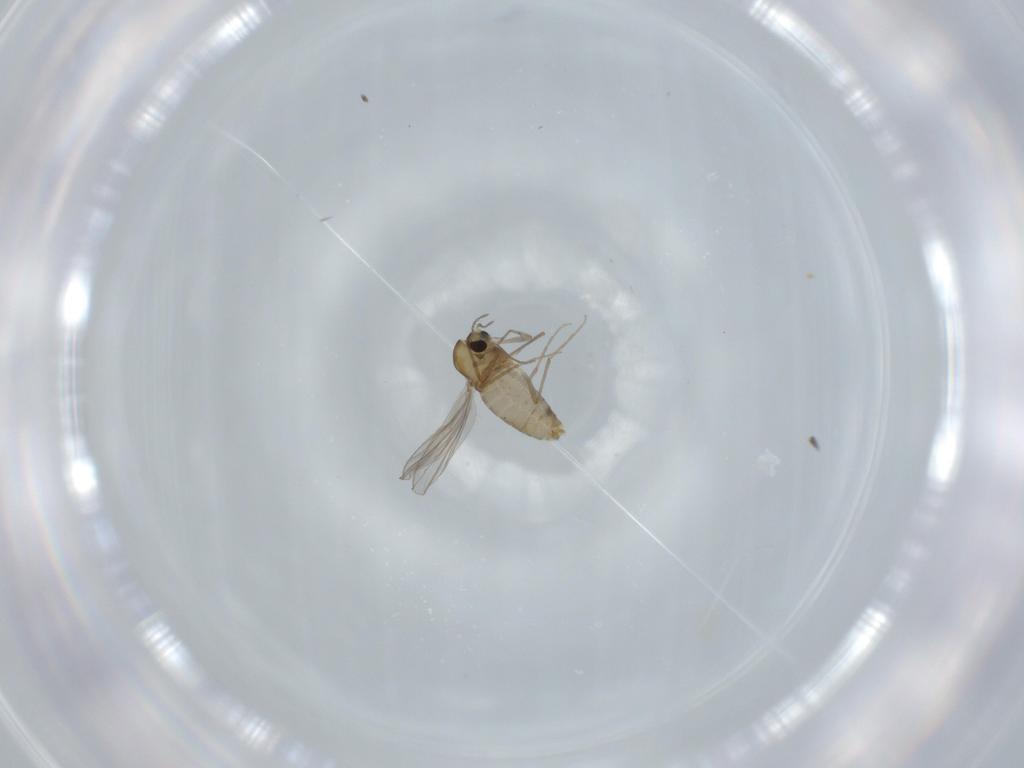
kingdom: Animalia
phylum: Arthropoda
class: Insecta
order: Diptera
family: Chironomidae
